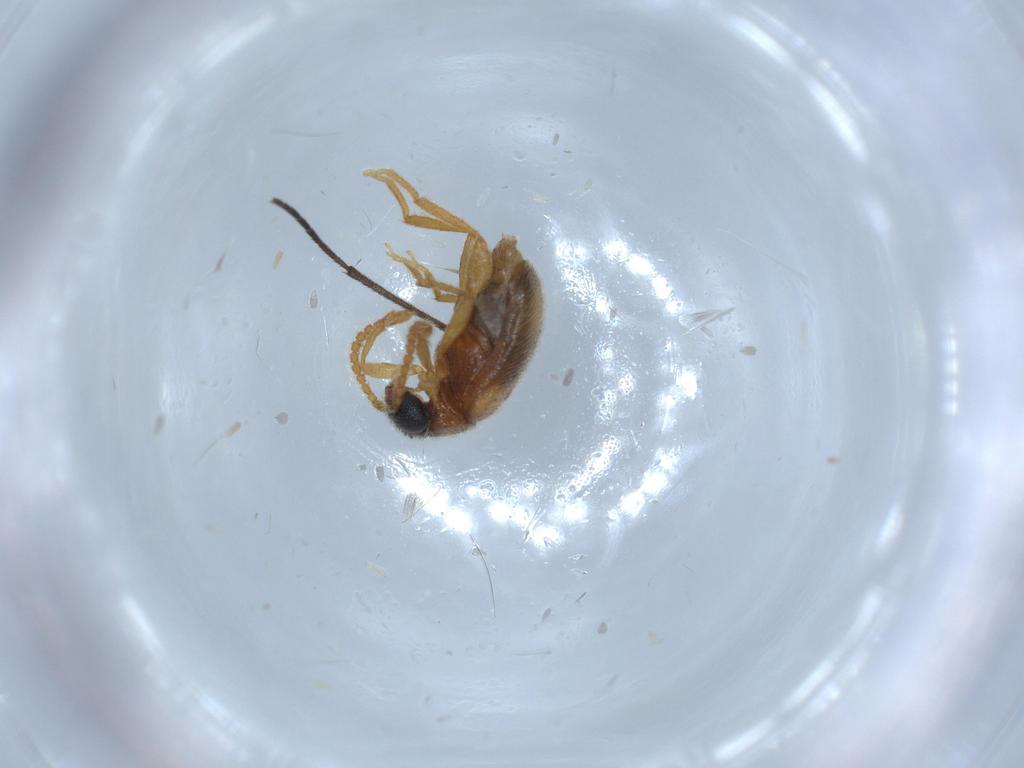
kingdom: Animalia
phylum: Arthropoda
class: Insecta
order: Coleoptera
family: Aderidae
